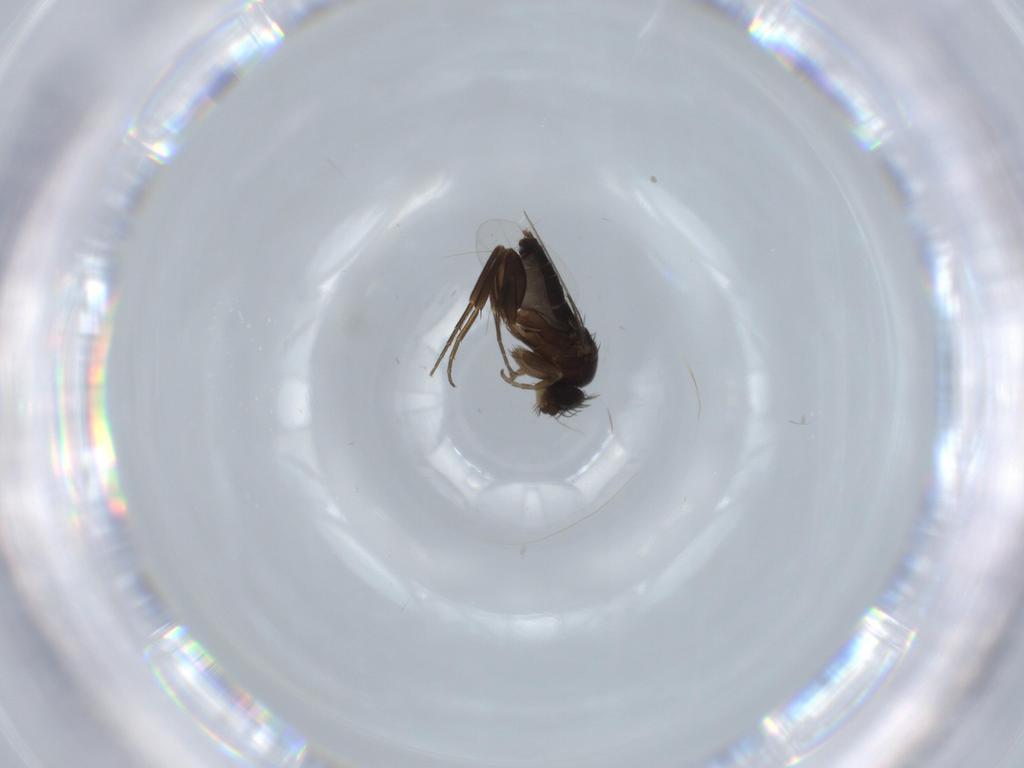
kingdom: Animalia
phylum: Arthropoda
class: Insecta
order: Diptera
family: Phoridae
